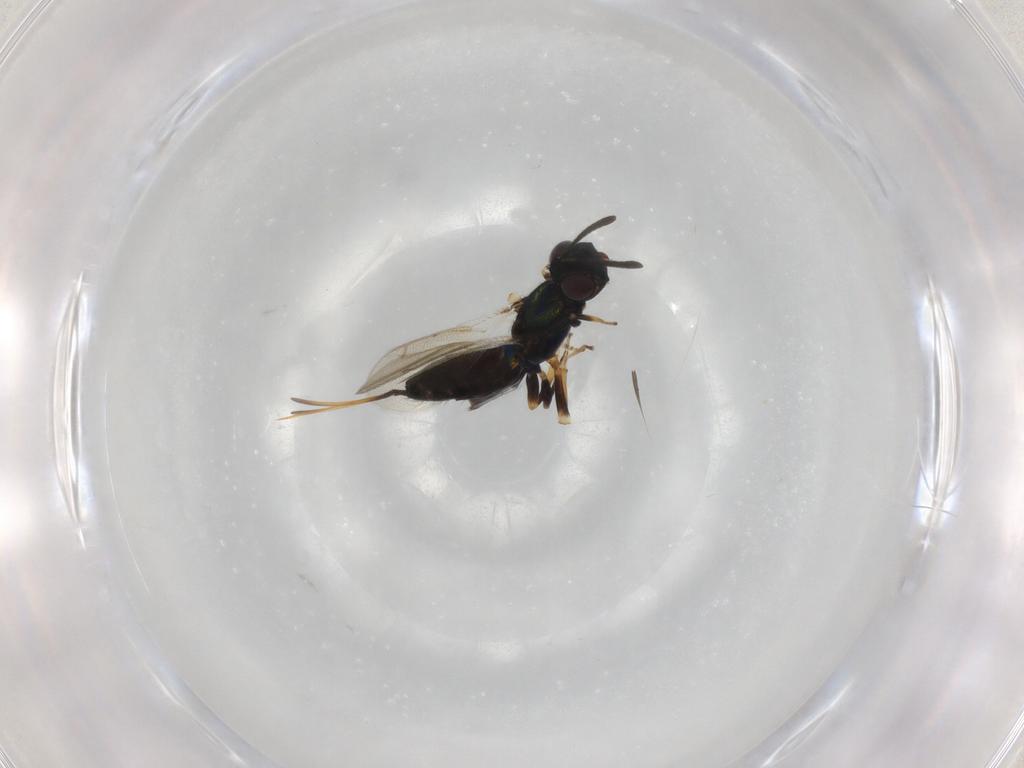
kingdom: Animalia
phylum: Arthropoda
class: Insecta
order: Hymenoptera
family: Eupelmidae
